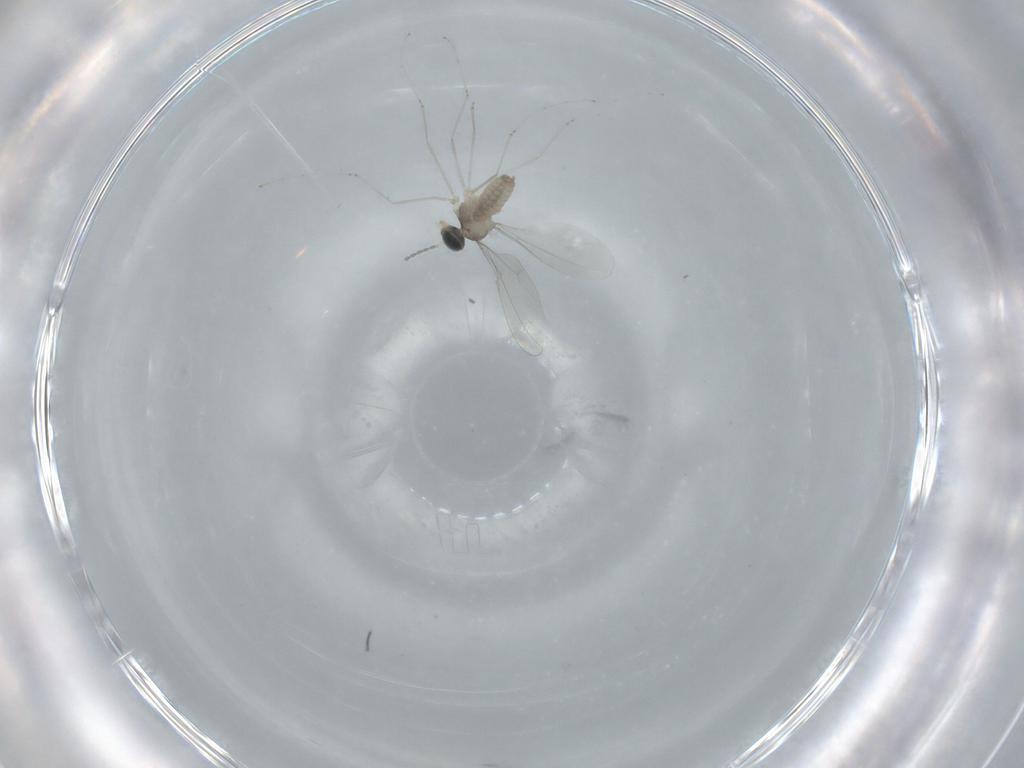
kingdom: Animalia
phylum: Arthropoda
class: Insecta
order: Diptera
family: Cecidomyiidae
